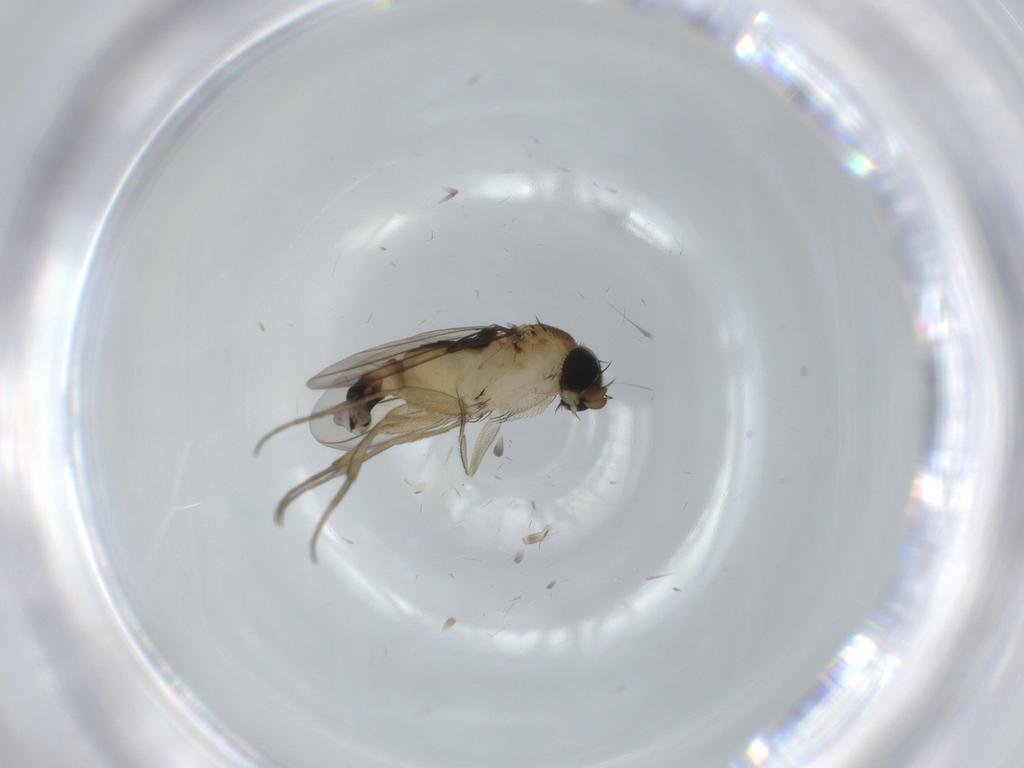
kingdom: Animalia
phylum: Arthropoda
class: Insecta
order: Diptera
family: Phoridae
